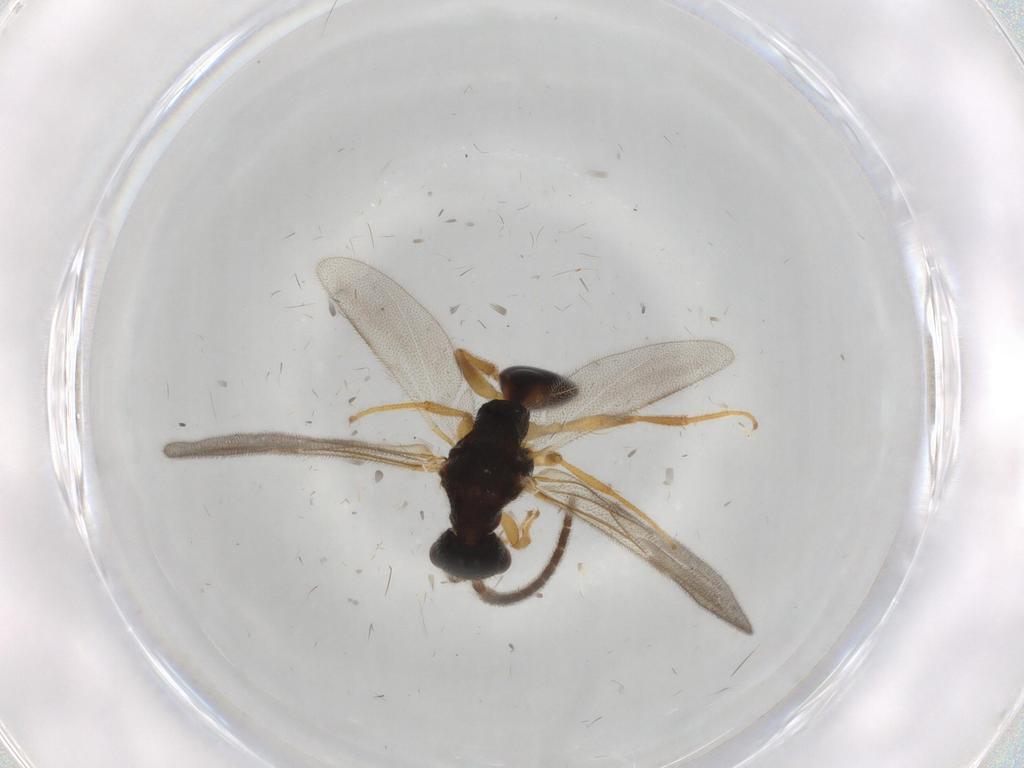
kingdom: Animalia
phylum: Arthropoda
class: Insecta
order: Hymenoptera
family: Bethylidae
